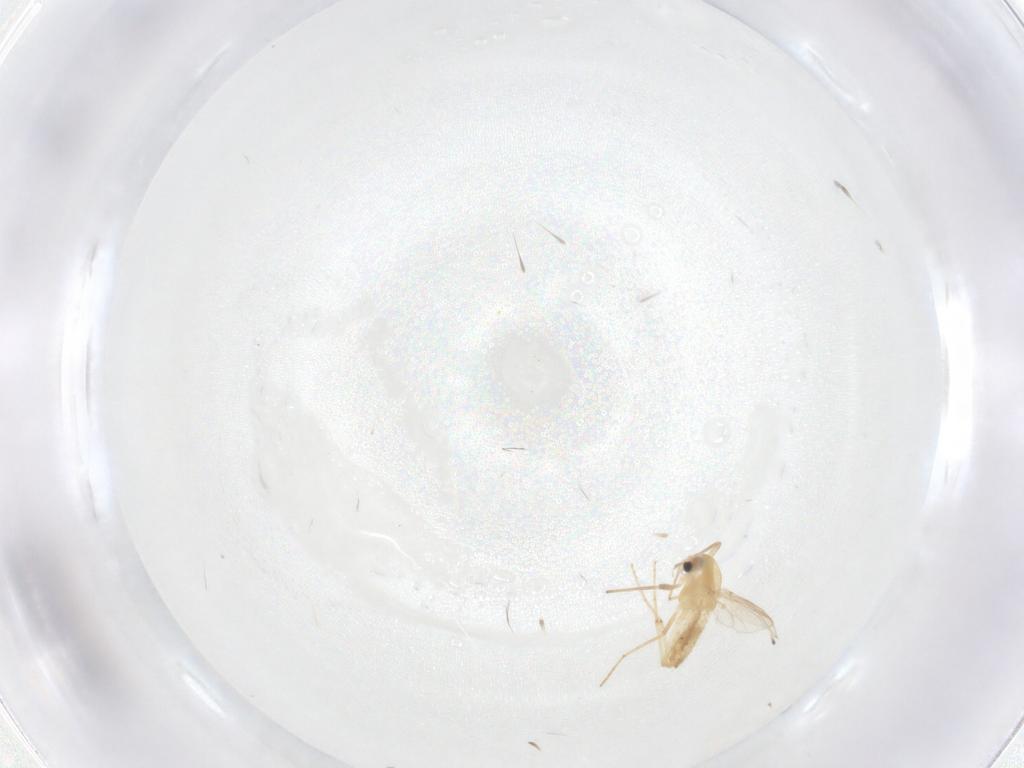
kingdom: Animalia
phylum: Arthropoda
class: Insecta
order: Diptera
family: Chironomidae
